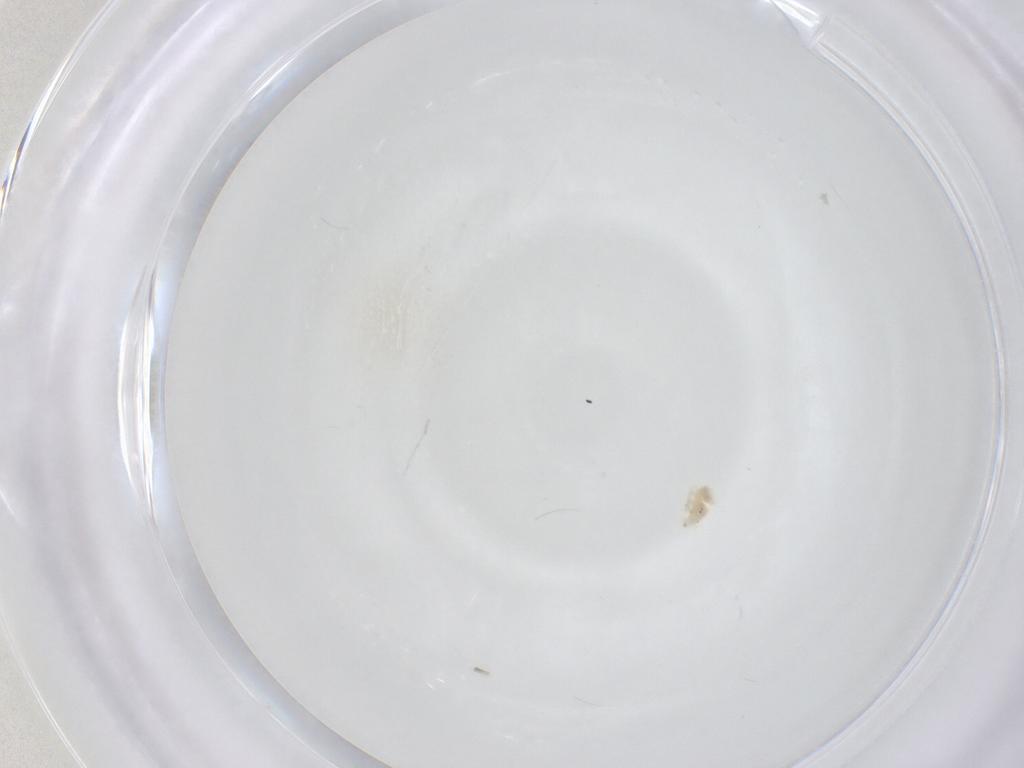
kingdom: Animalia
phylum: Arthropoda
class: Arachnida
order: Trombidiformes
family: Bdellidae
